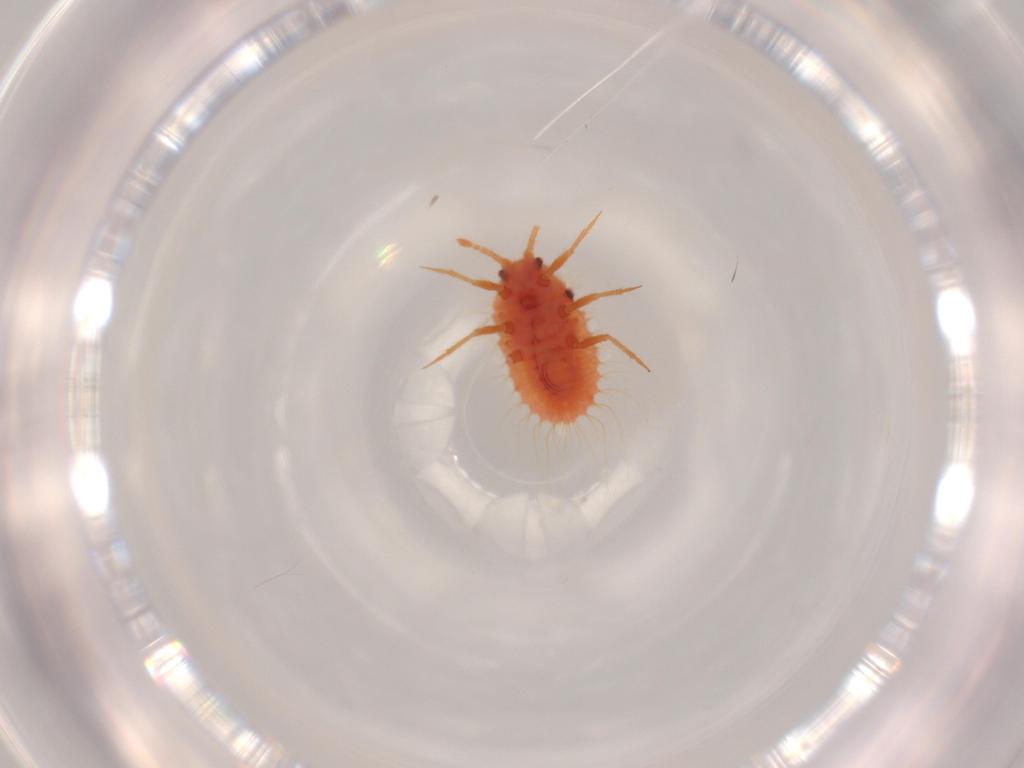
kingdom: Animalia
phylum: Arthropoda
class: Insecta
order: Hemiptera
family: Coccoidea_incertae_sedis
